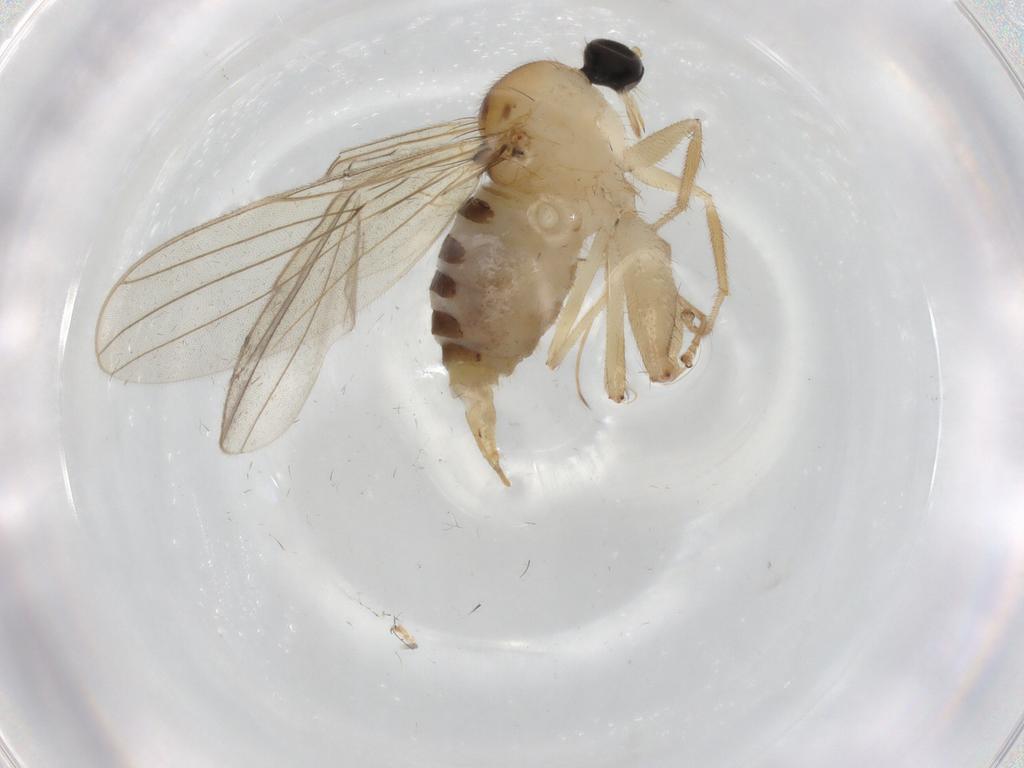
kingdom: Animalia
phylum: Arthropoda
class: Insecta
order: Diptera
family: Hybotidae
